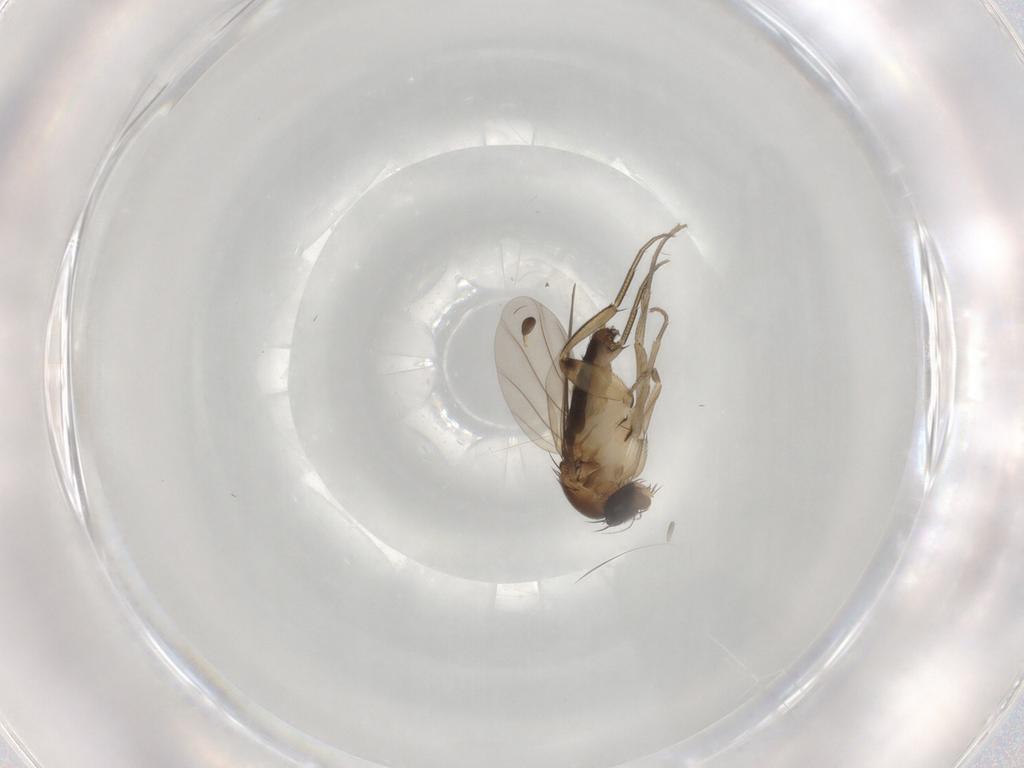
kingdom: Animalia
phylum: Arthropoda
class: Insecta
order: Diptera
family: Phoridae
